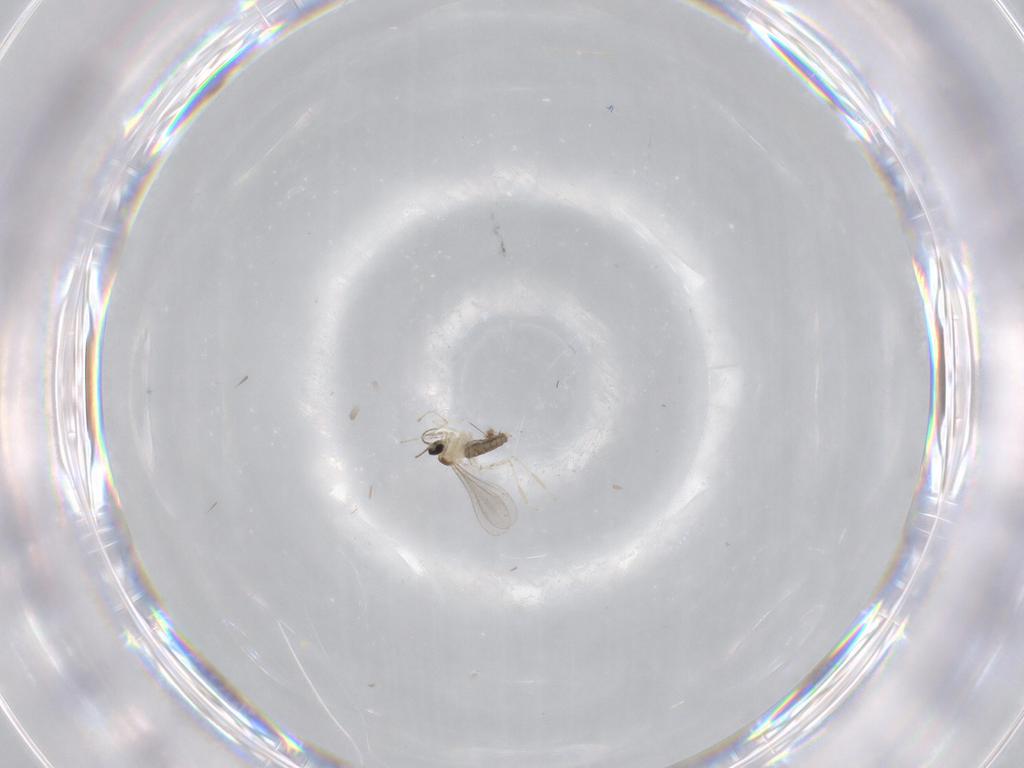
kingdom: Animalia
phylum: Arthropoda
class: Insecta
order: Diptera
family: Cecidomyiidae
